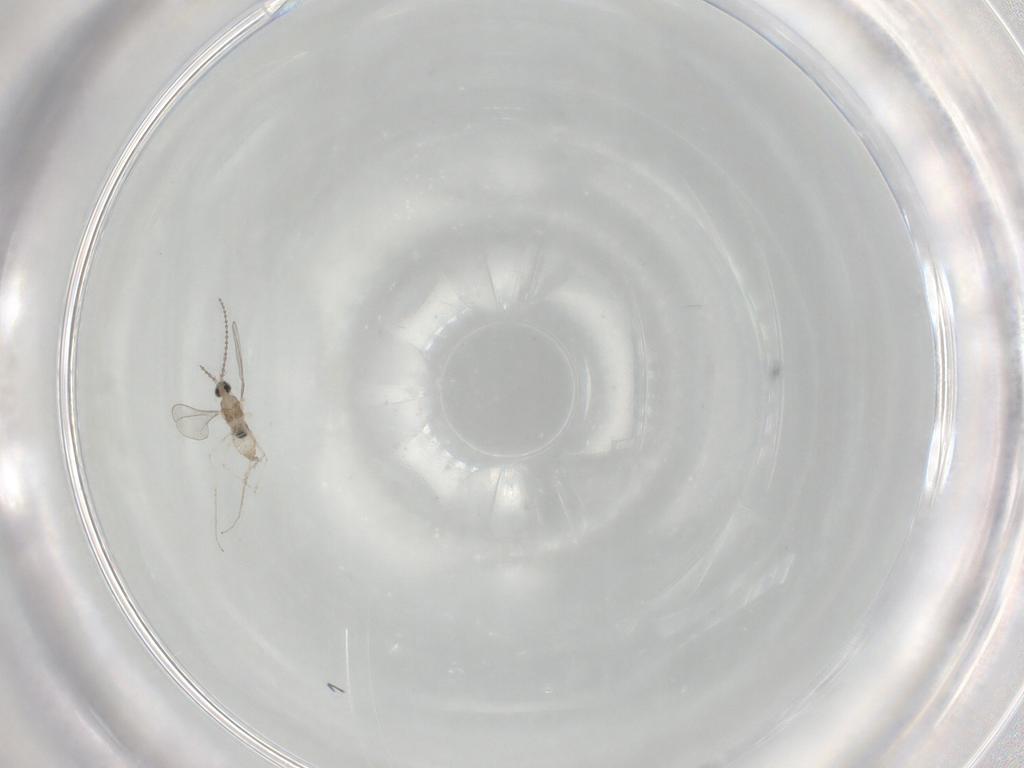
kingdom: Animalia
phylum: Arthropoda
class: Insecta
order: Diptera
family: Cecidomyiidae
